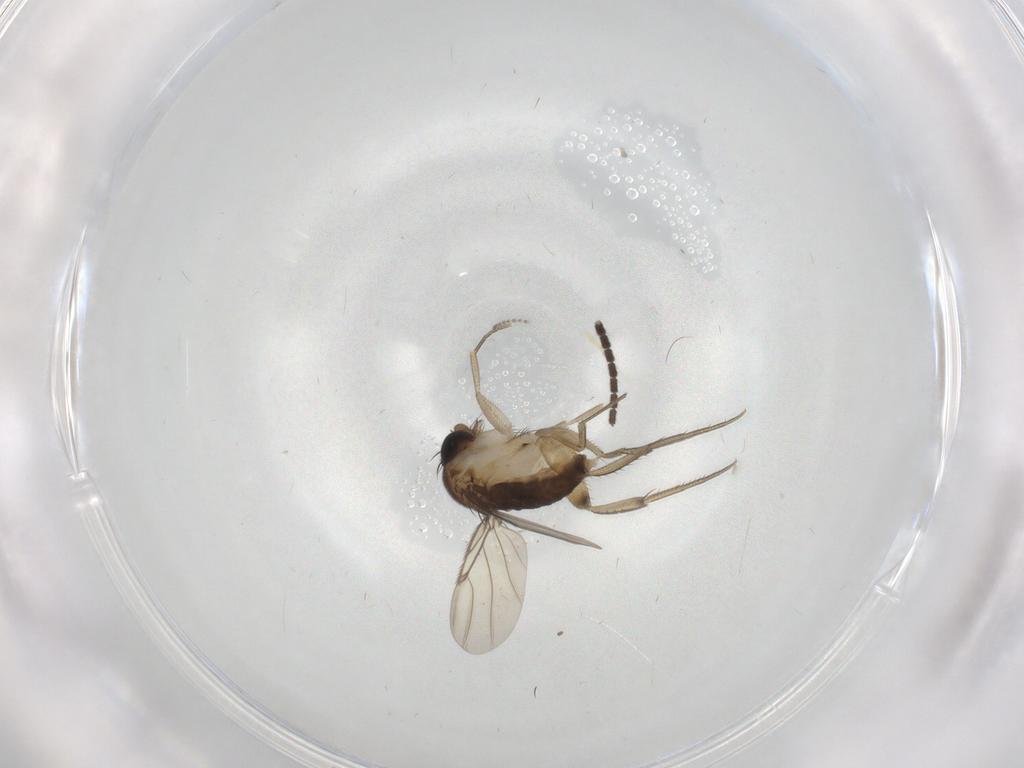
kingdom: Animalia
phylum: Arthropoda
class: Insecta
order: Diptera
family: Phoridae
